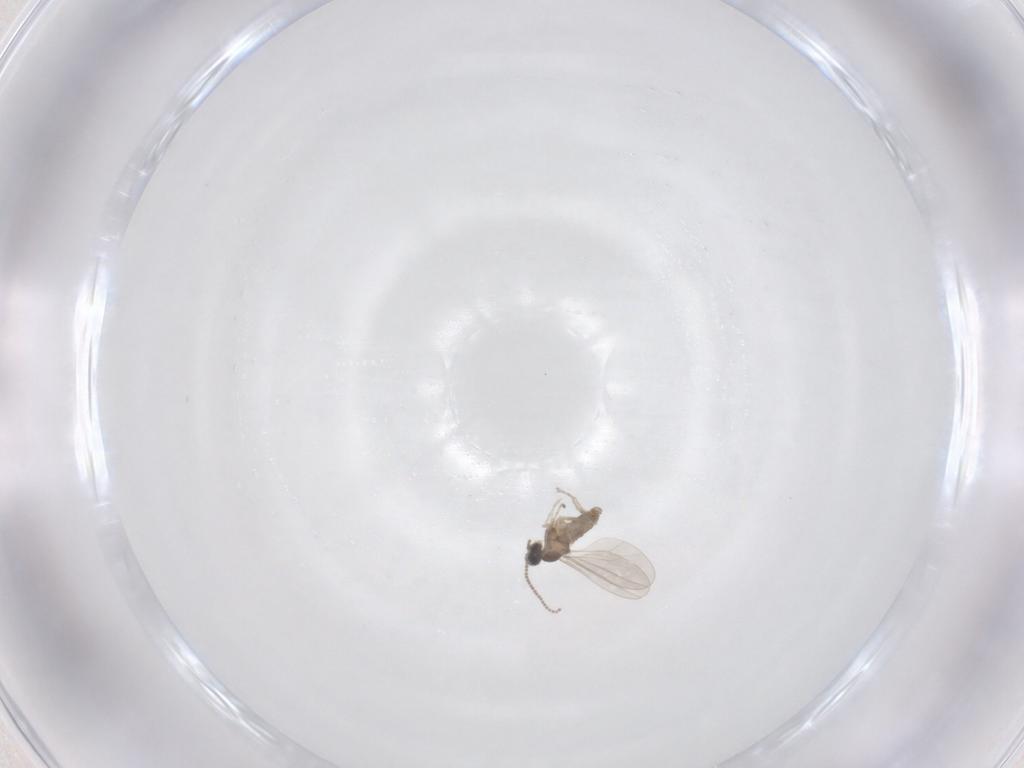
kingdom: Animalia
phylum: Arthropoda
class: Insecta
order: Diptera
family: Cecidomyiidae
